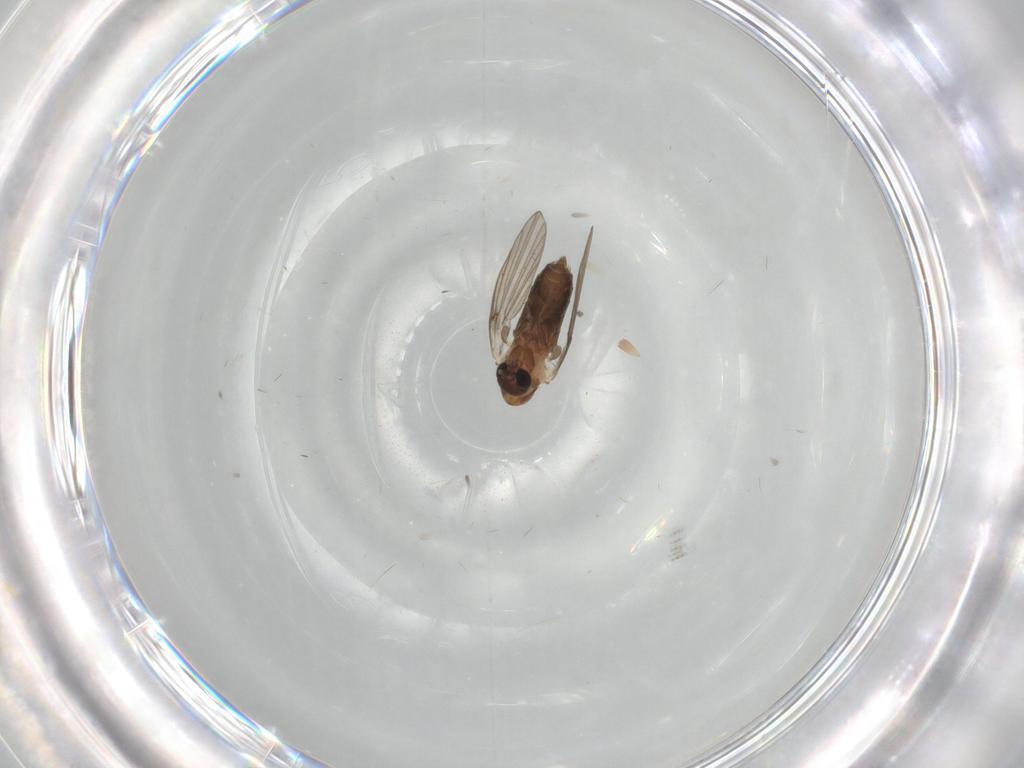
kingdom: Animalia
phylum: Arthropoda
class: Insecta
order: Diptera
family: Psychodidae
